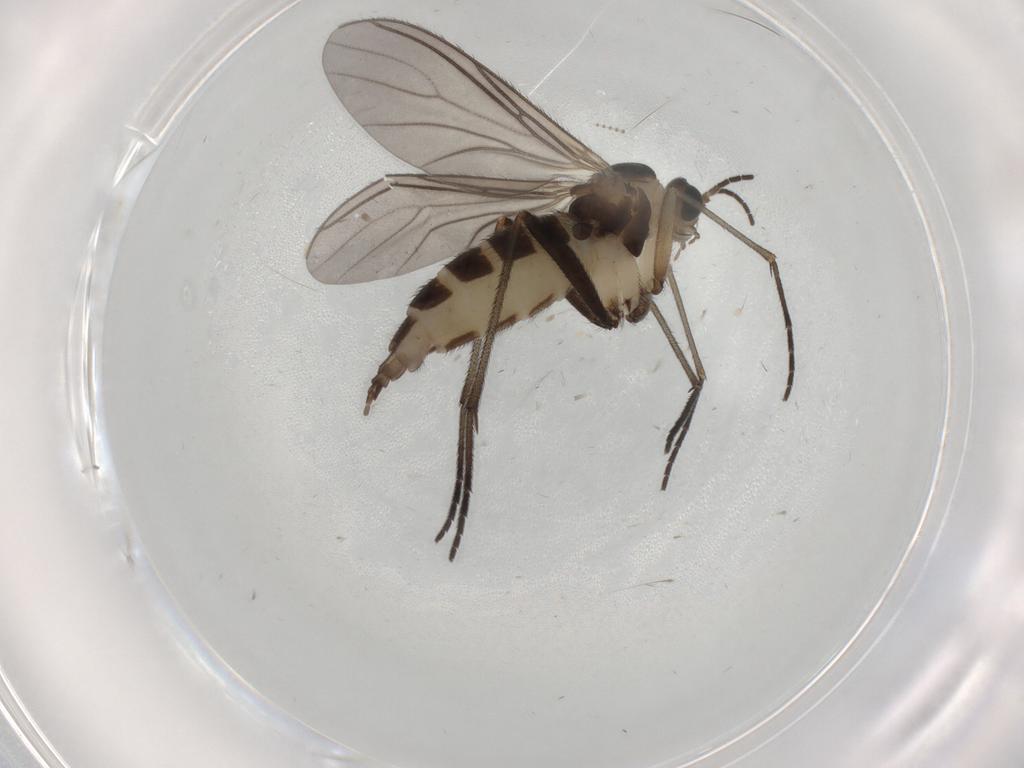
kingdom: Animalia
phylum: Arthropoda
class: Insecta
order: Diptera
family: Sciaridae
